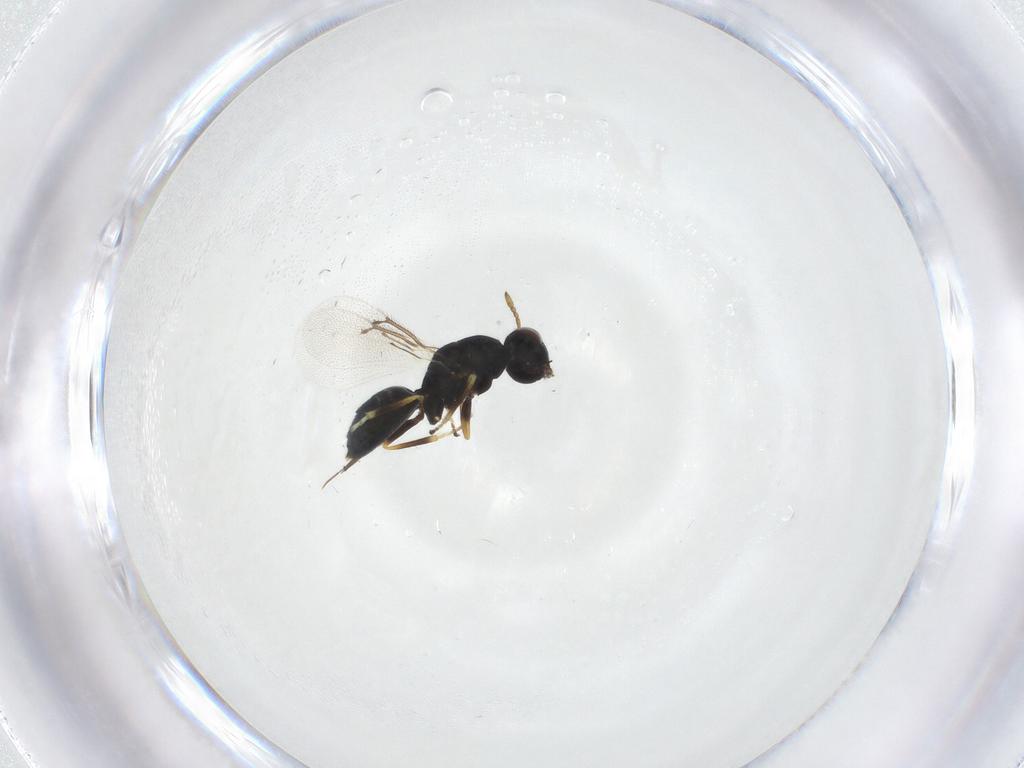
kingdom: Animalia
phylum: Arthropoda
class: Insecta
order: Hymenoptera
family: Eulophidae
